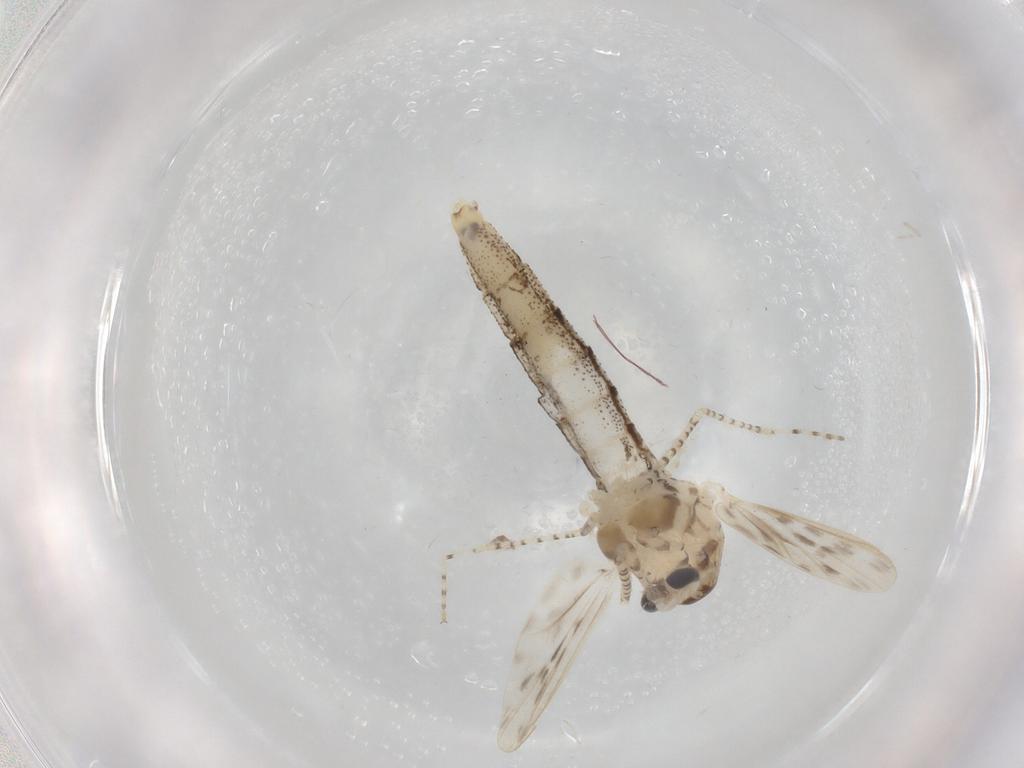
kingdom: Animalia
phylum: Arthropoda
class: Insecta
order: Diptera
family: Chaoboridae
